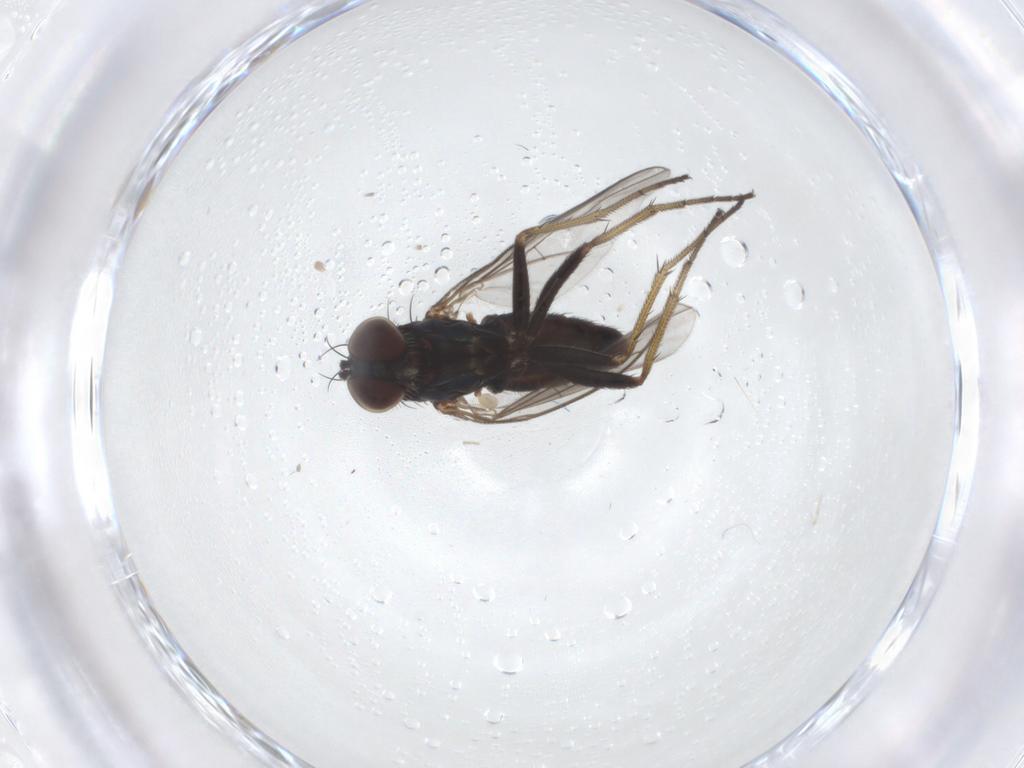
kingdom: Animalia
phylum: Arthropoda
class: Insecta
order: Diptera
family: Dolichopodidae
